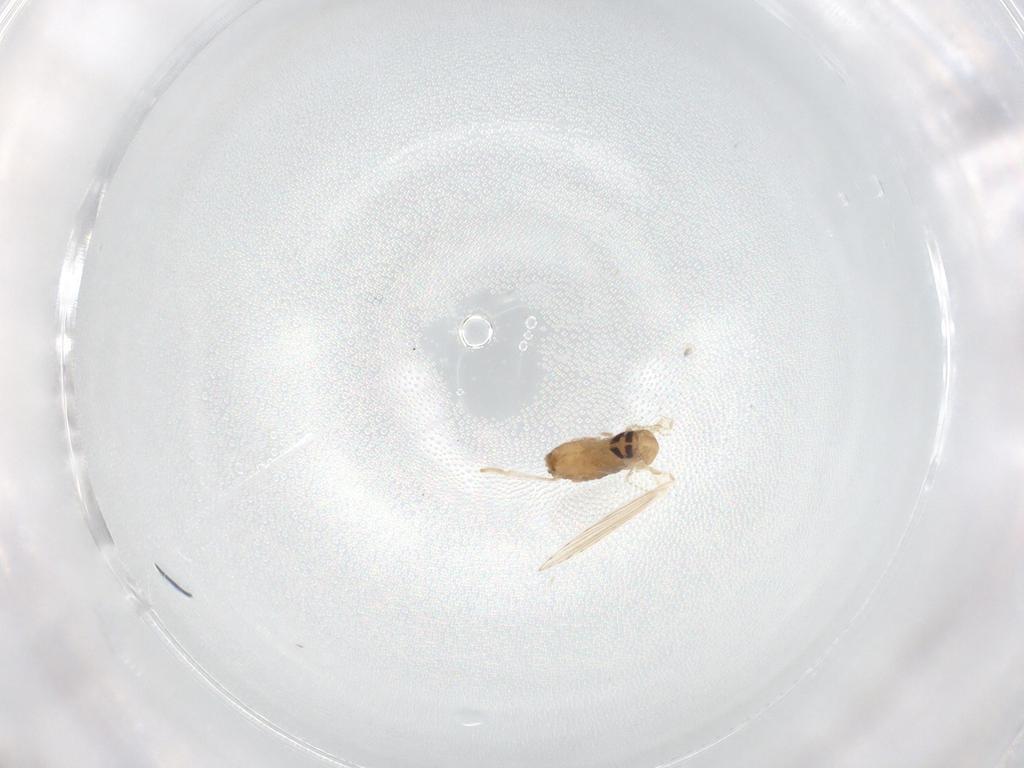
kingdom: Animalia
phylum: Arthropoda
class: Insecta
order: Diptera
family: Psychodidae
